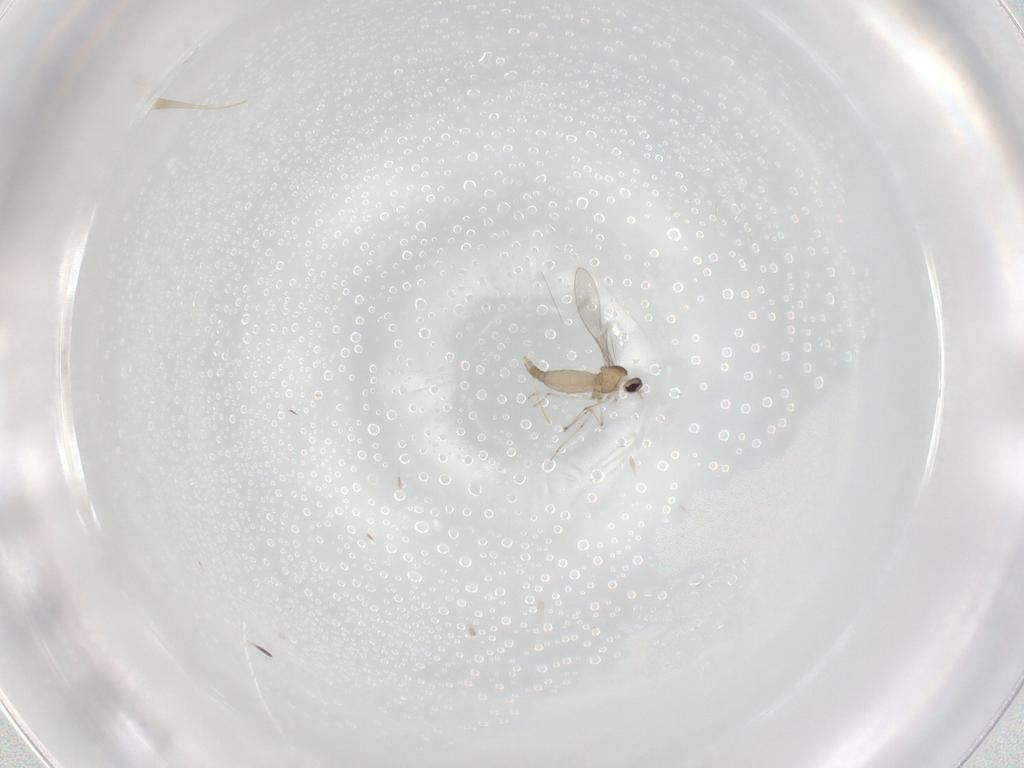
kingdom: Animalia
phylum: Arthropoda
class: Insecta
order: Diptera
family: Cecidomyiidae
